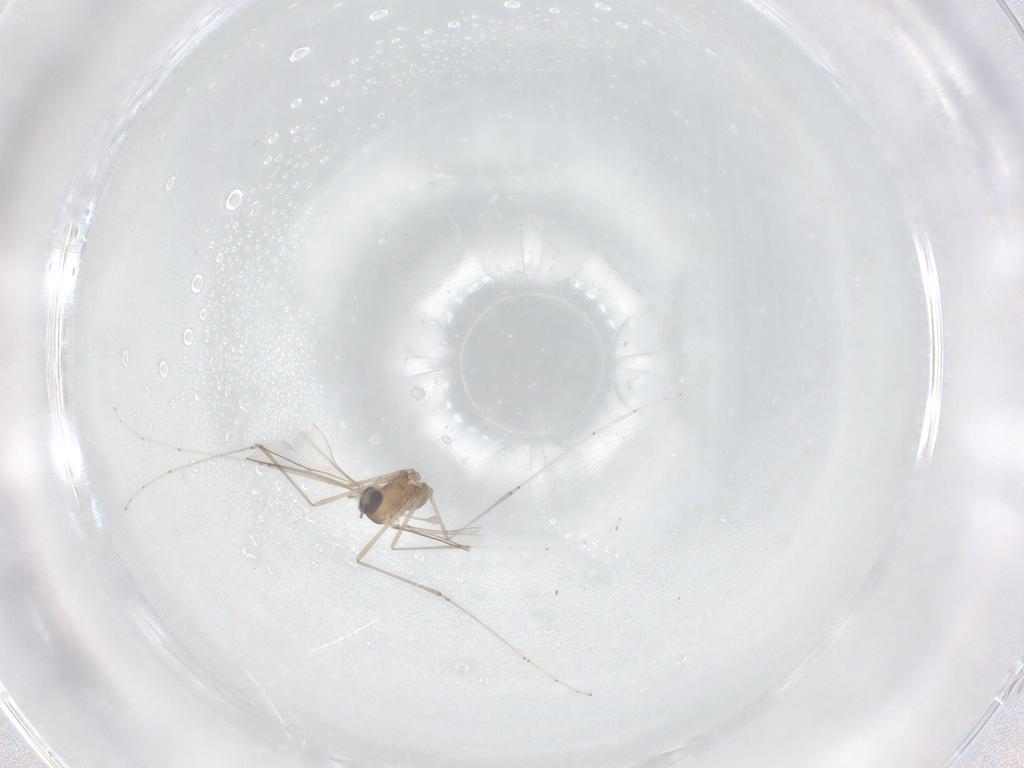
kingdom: Animalia
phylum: Arthropoda
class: Insecta
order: Diptera
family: Cecidomyiidae
